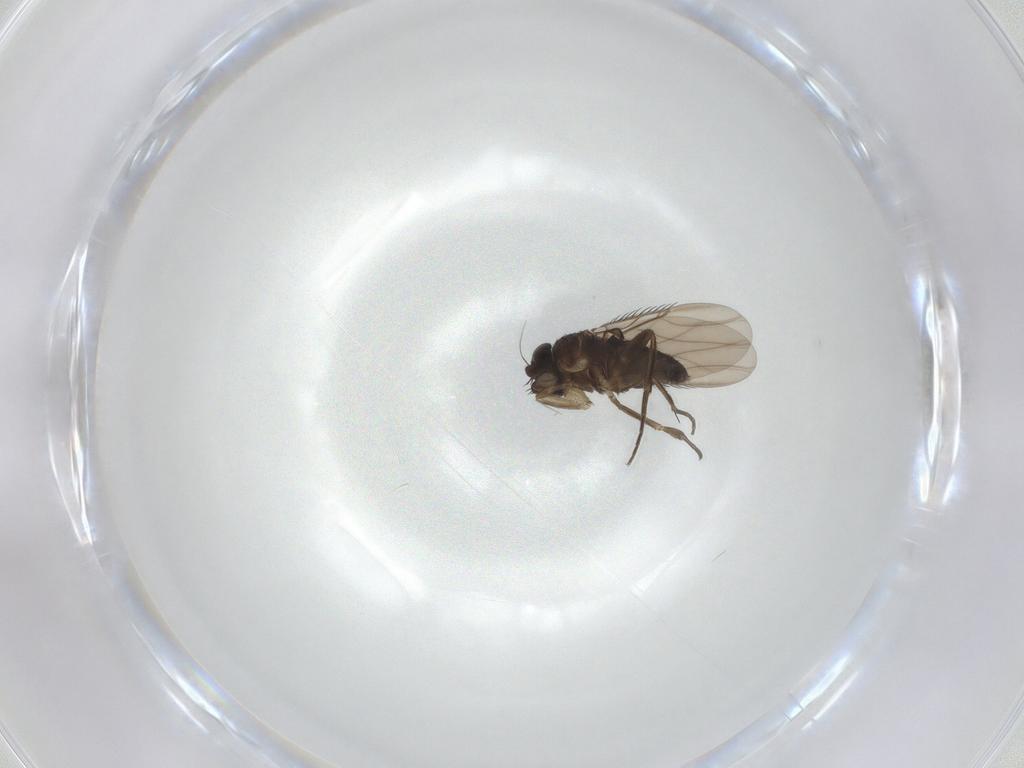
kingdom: Animalia
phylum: Arthropoda
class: Insecta
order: Diptera
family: Phoridae
